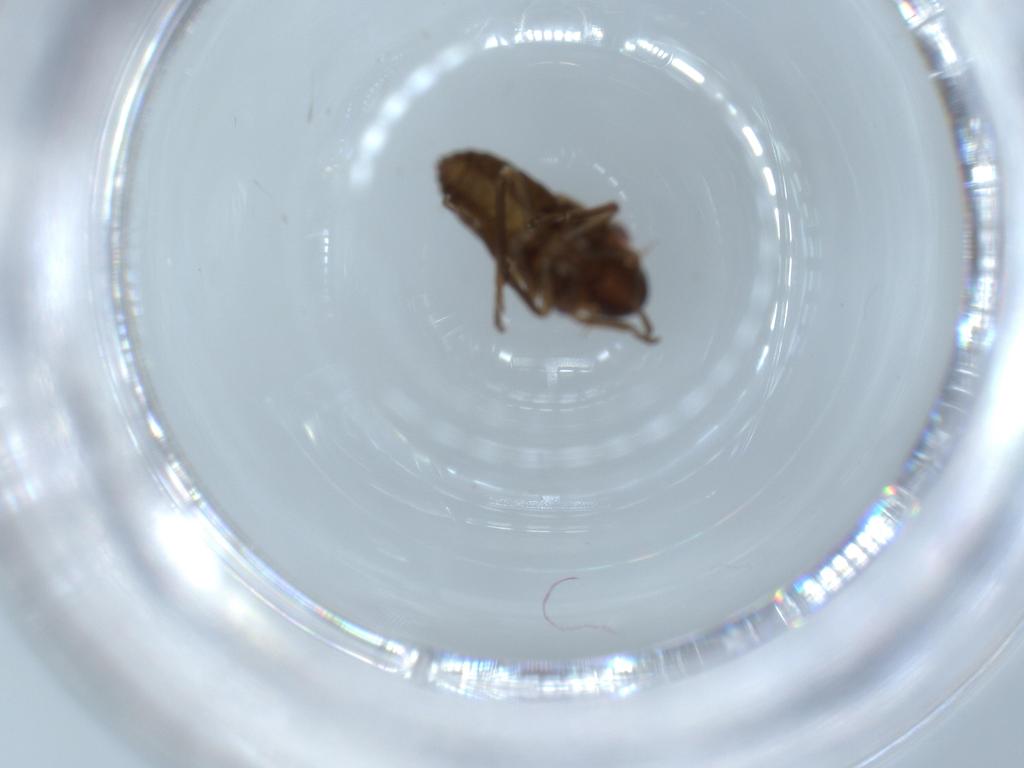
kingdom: Animalia
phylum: Arthropoda
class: Insecta
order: Hemiptera
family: Cicadellidae
